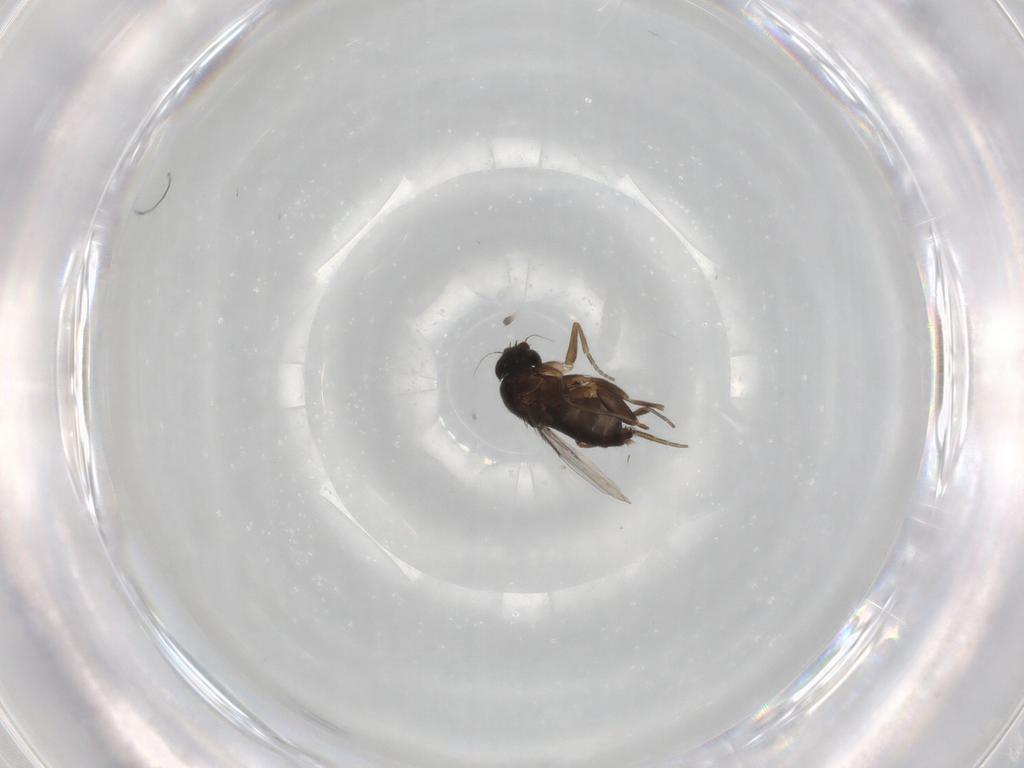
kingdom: Animalia
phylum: Arthropoda
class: Insecta
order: Diptera
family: Phoridae
